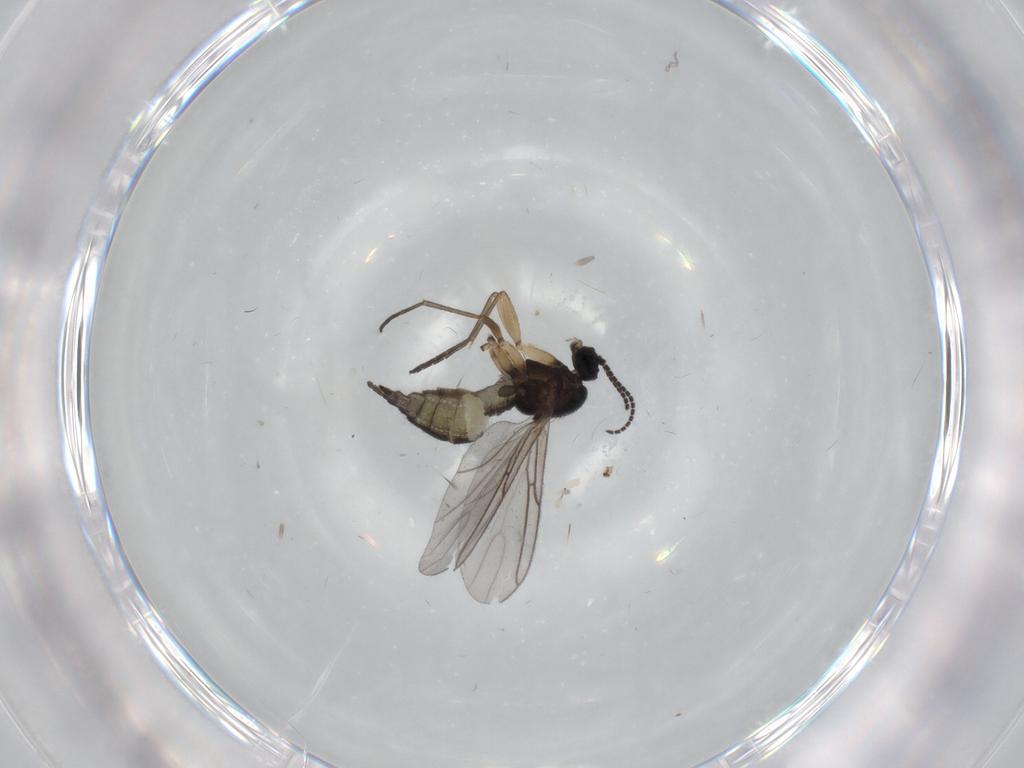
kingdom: Animalia
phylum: Arthropoda
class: Insecta
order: Diptera
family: Sciaridae
